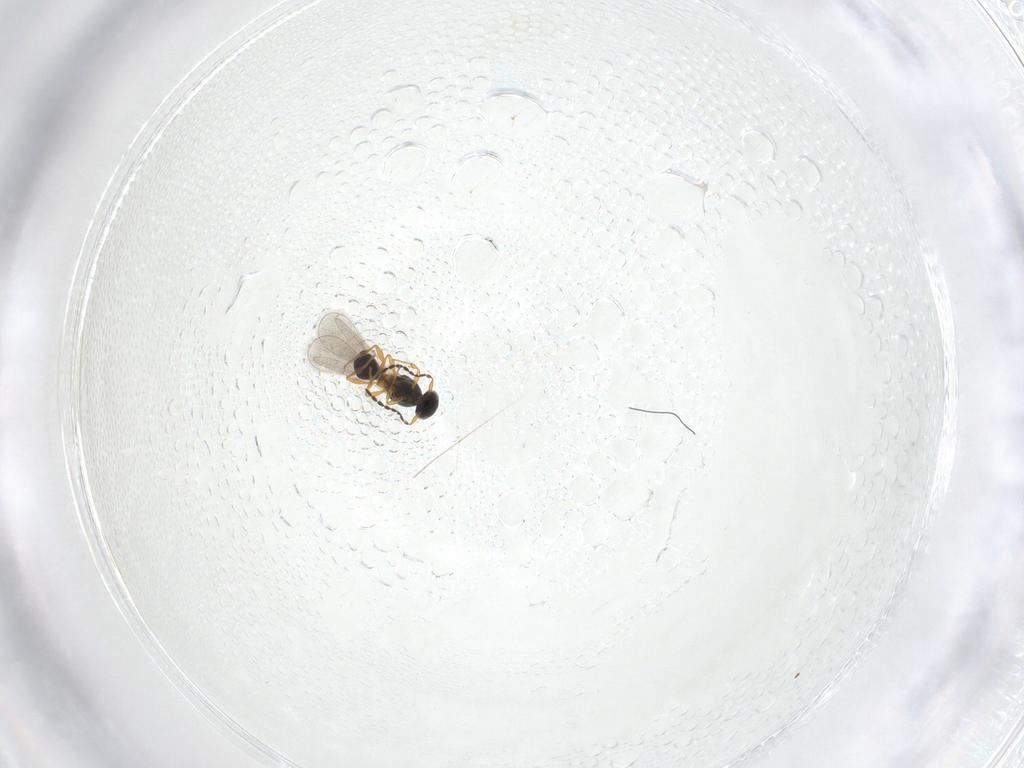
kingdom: Animalia
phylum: Arthropoda
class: Insecta
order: Hymenoptera
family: Platygastridae
